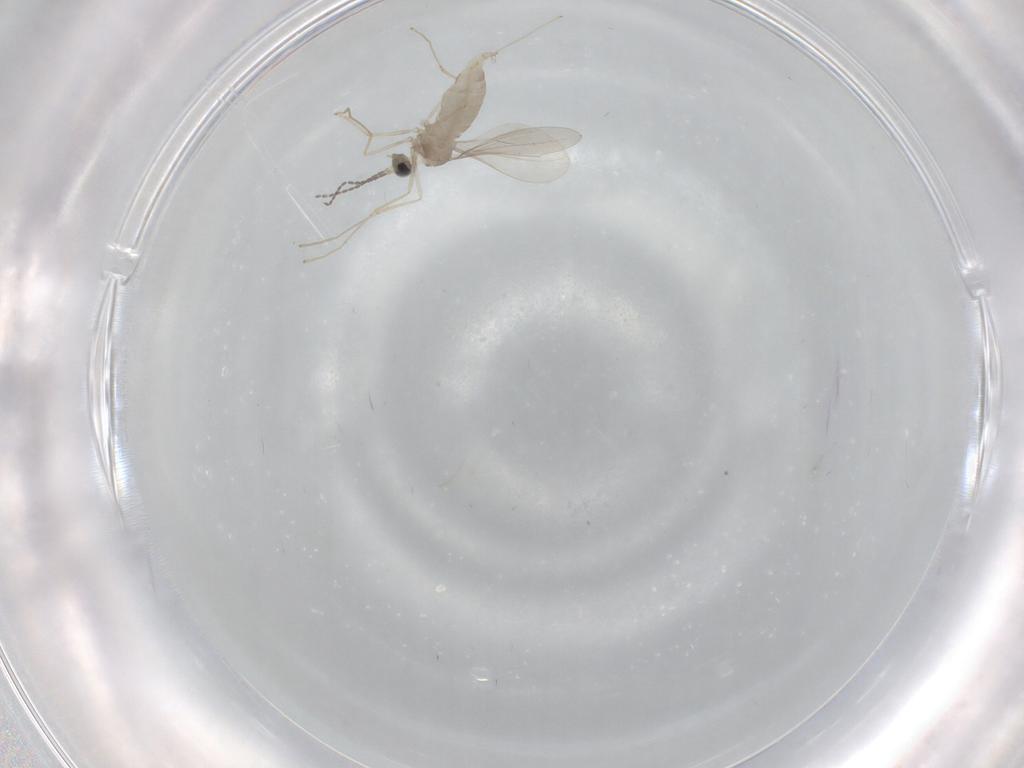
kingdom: Animalia
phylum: Arthropoda
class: Insecta
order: Diptera
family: Cecidomyiidae
